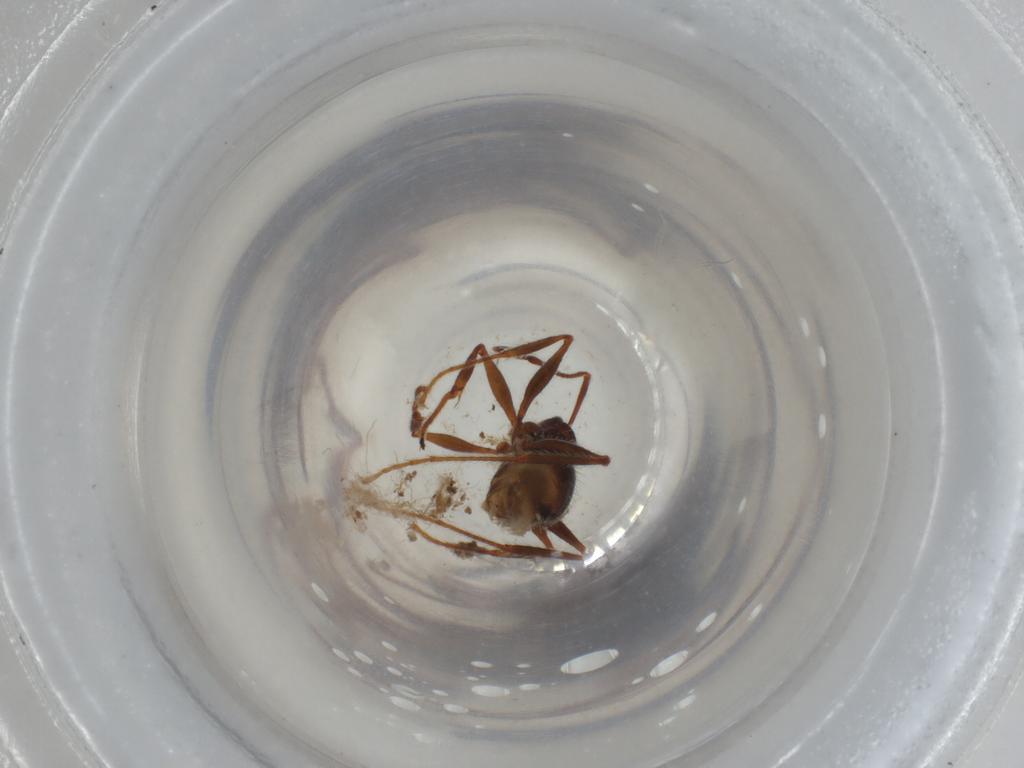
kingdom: Animalia
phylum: Arthropoda
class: Insecta
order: Hymenoptera
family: Formicidae
